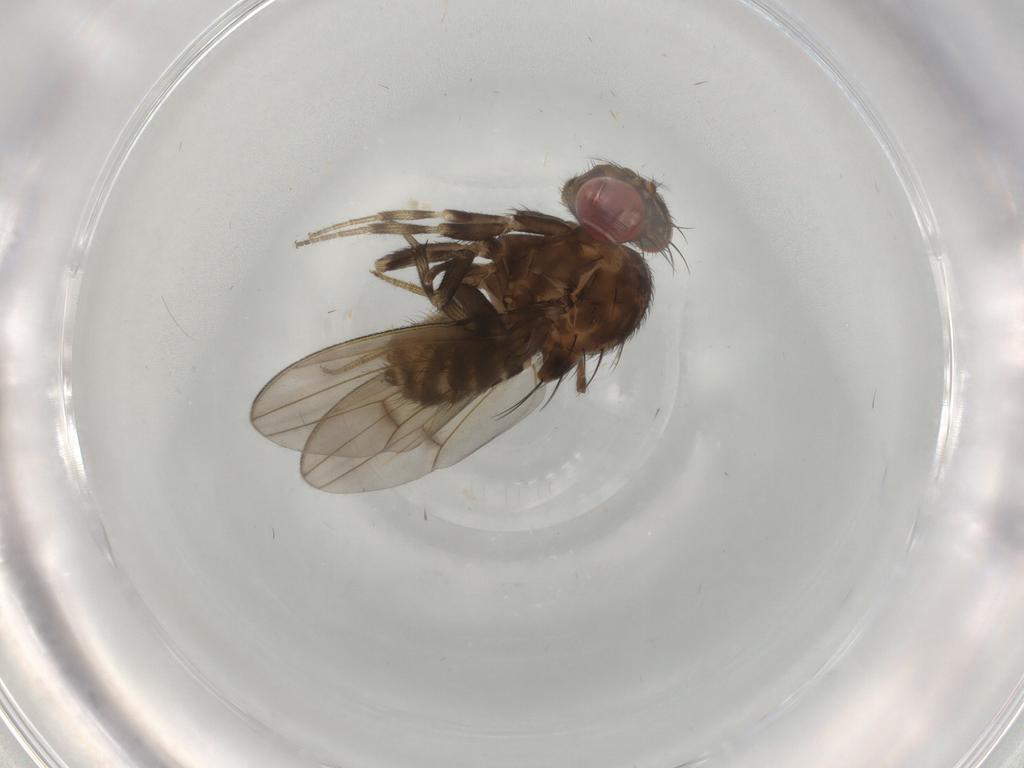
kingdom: Animalia
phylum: Arthropoda
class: Insecta
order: Diptera
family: Drosophilidae
